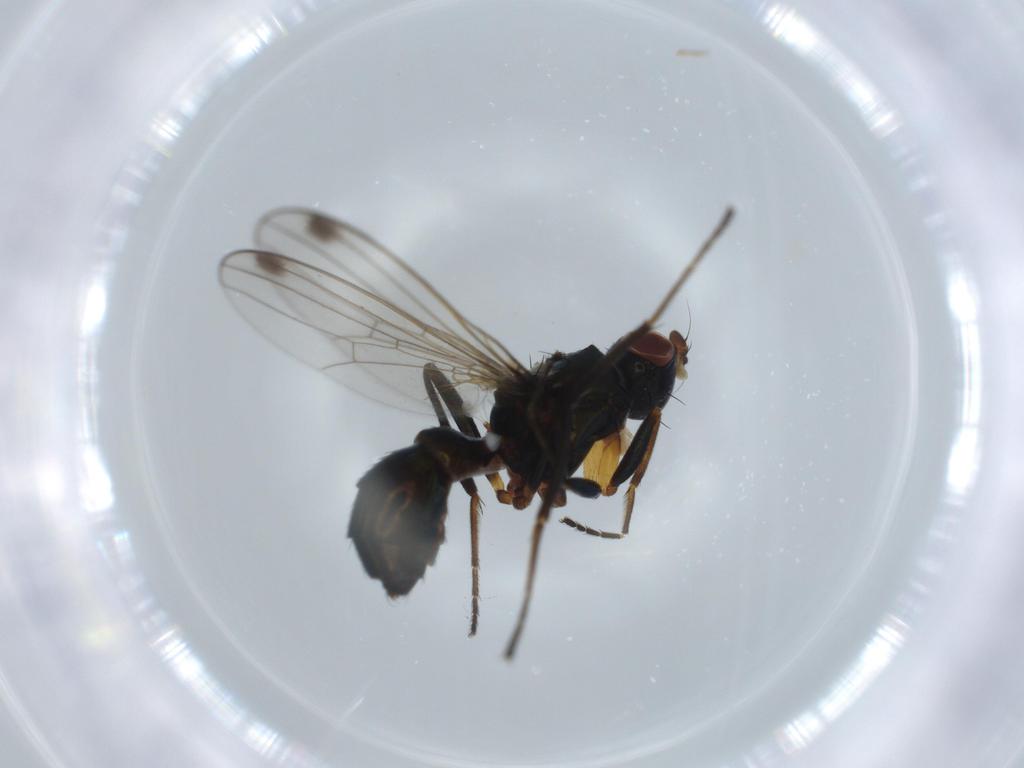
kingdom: Animalia
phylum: Arthropoda
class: Insecta
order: Diptera
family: Sepsidae
